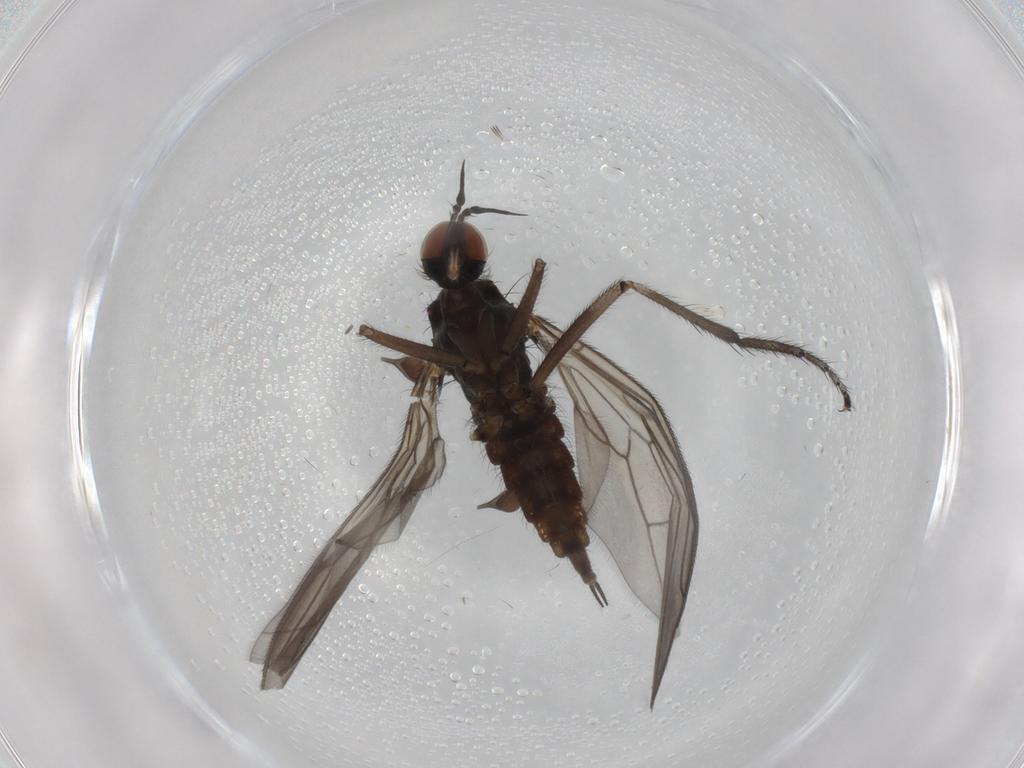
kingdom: Animalia
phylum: Arthropoda
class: Insecta
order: Diptera
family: Empididae
